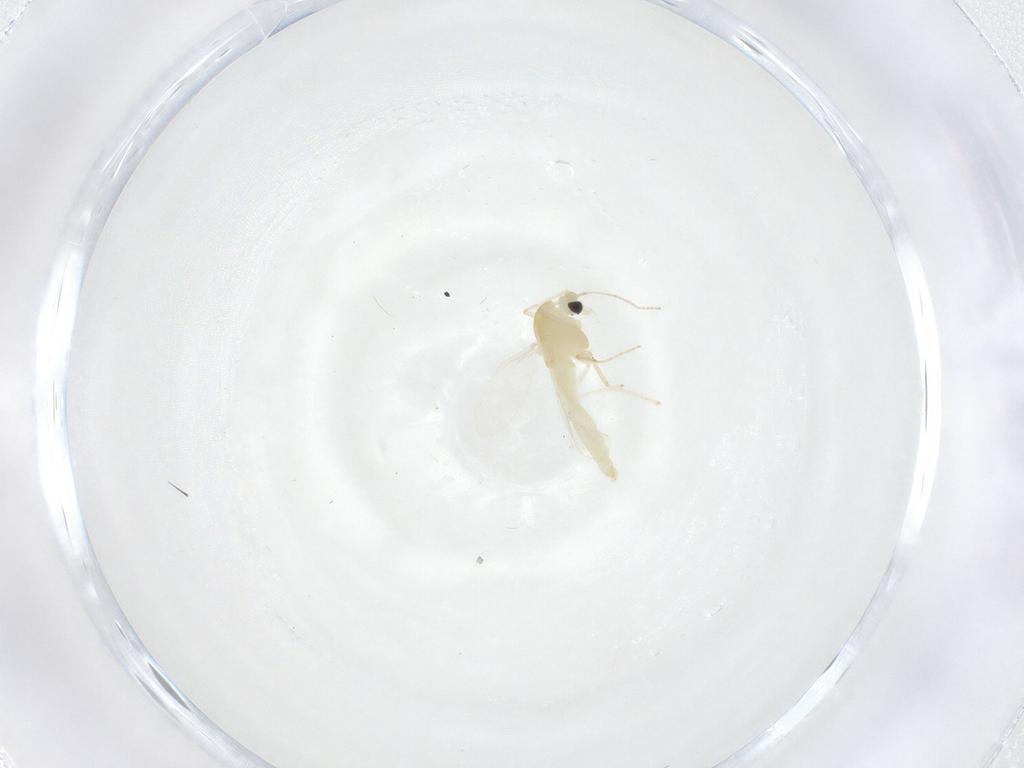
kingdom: Animalia
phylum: Arthropoda
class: Insecta
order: Diptera
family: Chironomidae
